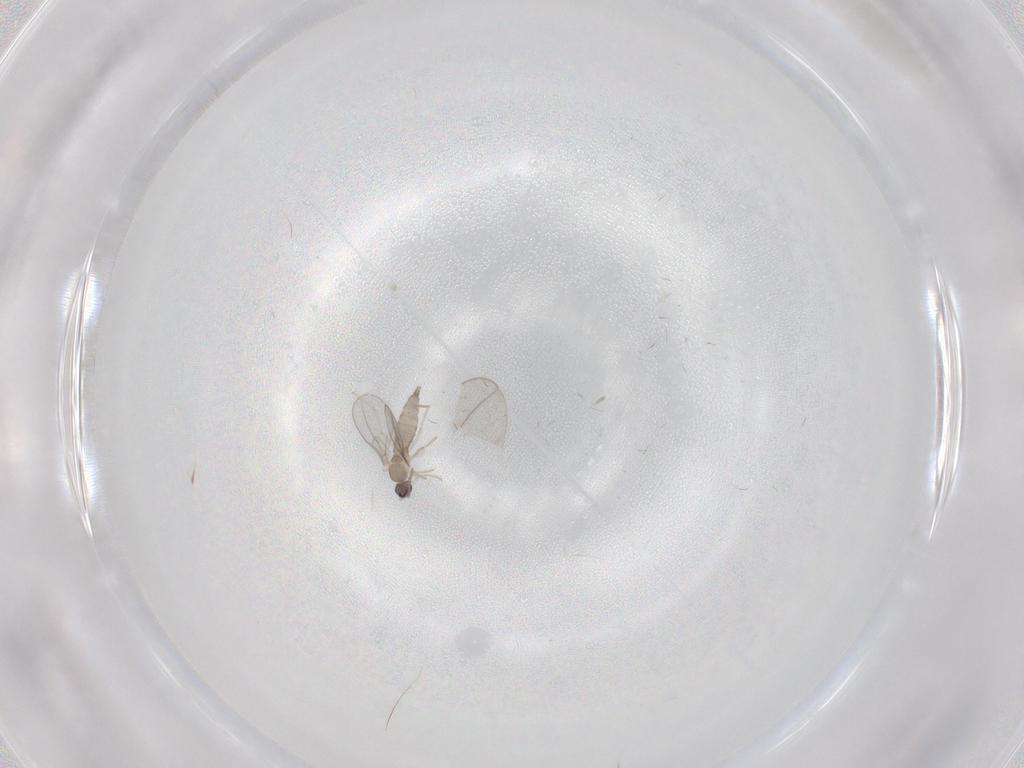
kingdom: Animalia
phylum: Arthropoda
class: Insecta
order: Diptera
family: Cecidomyiidae
